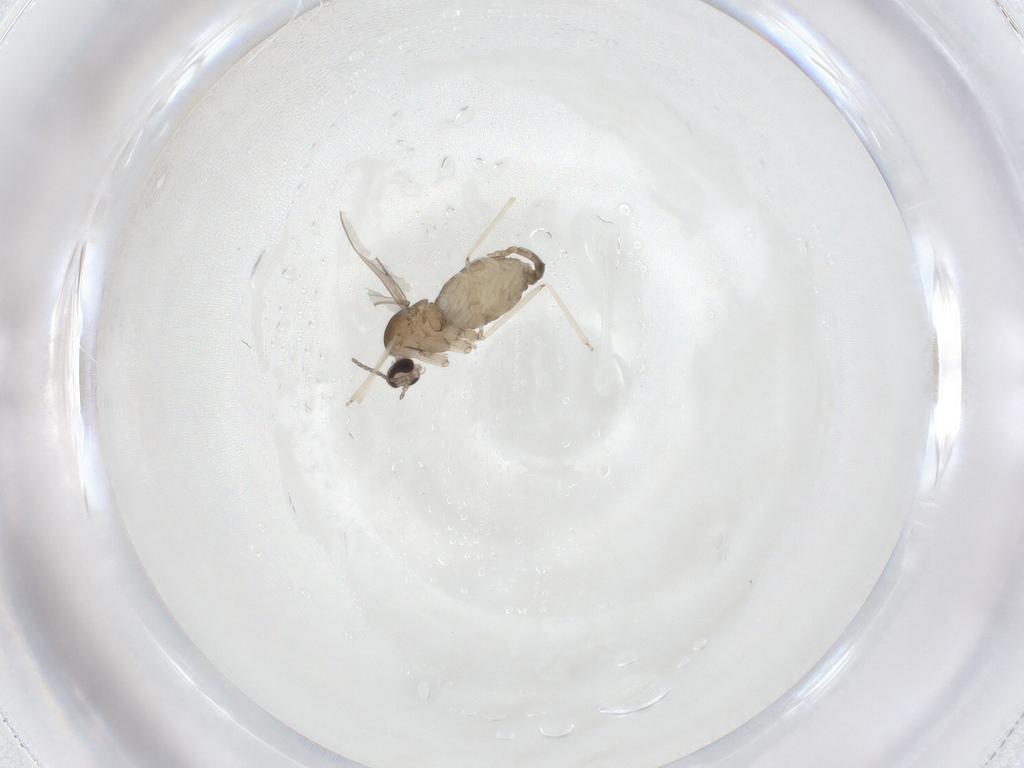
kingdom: Animalia
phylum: Arthropoda
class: Insecta
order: Diptera
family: Cecidomyiidae
